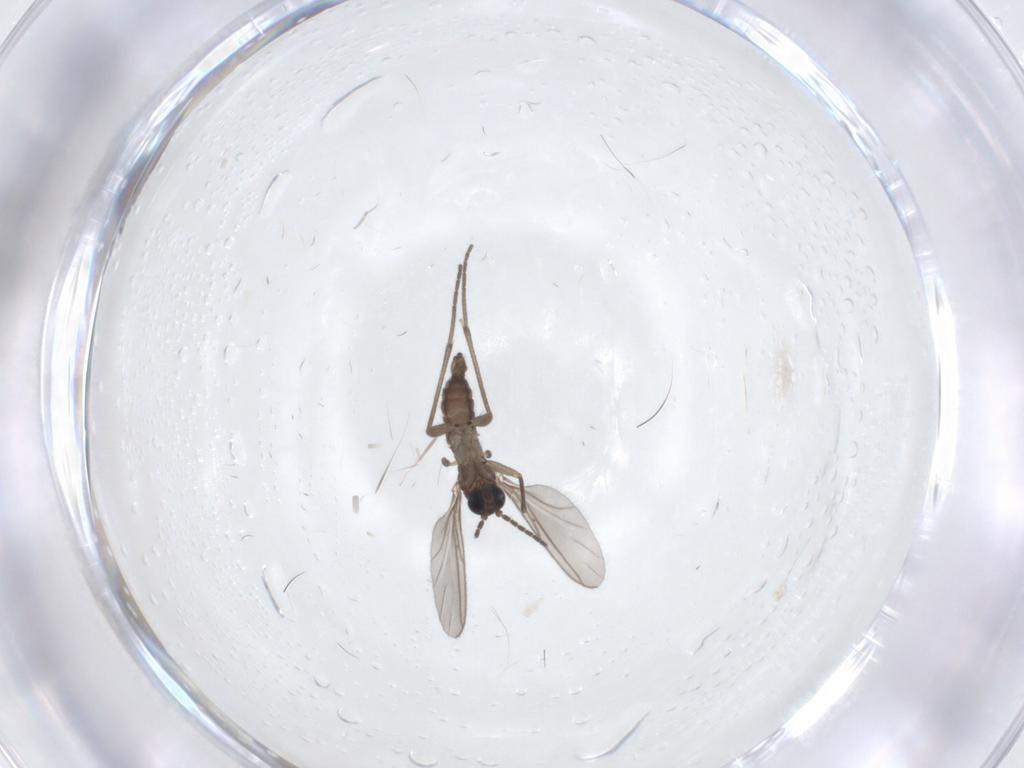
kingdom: Animalia
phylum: Arthropoda
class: Insecta
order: Diptera
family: Sciaridae
